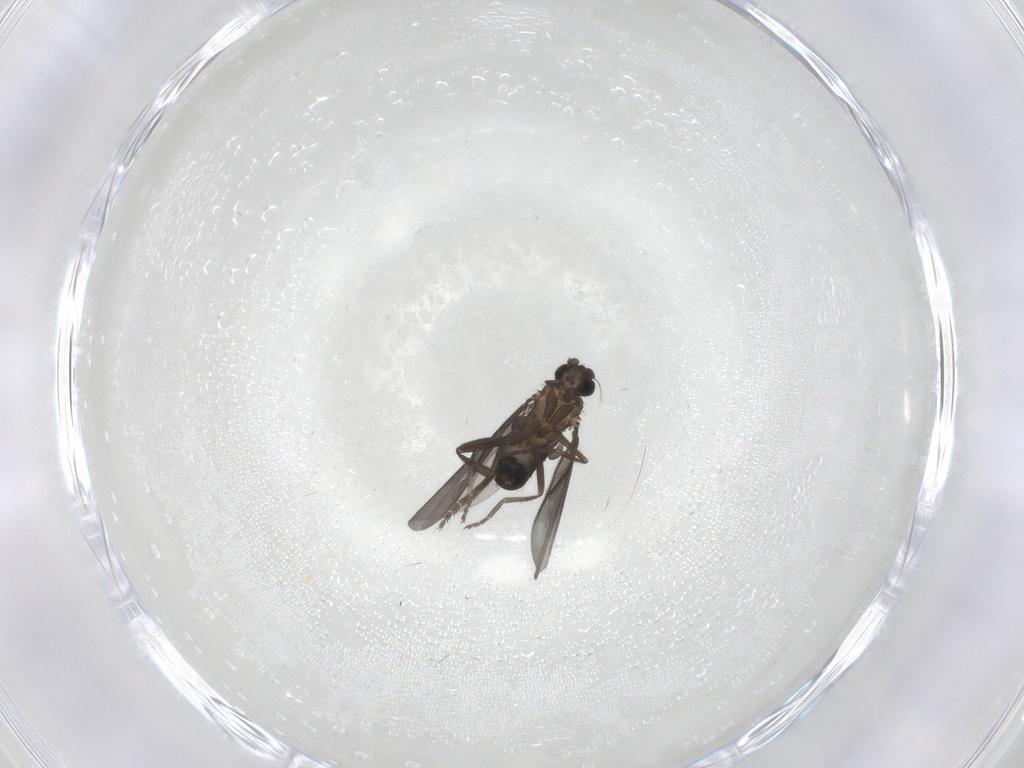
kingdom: Animalia
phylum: Arthropoda
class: Insecta
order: Diptera
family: Phoridae
